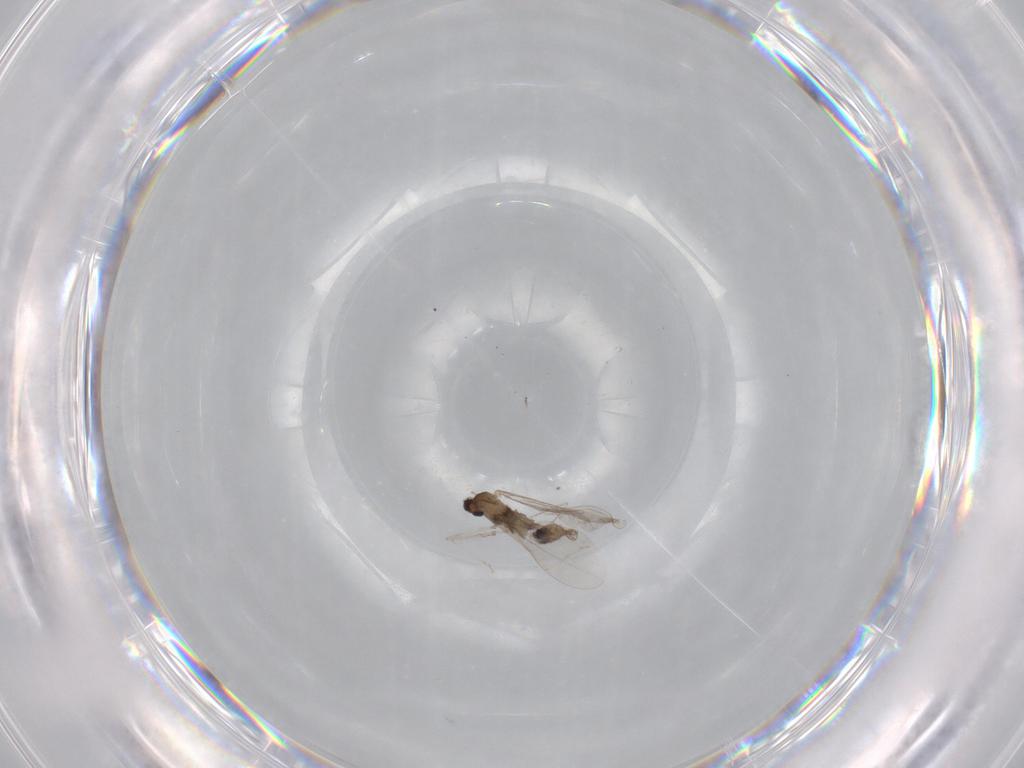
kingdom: Animalia
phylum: Arthropoda
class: Insecta
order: Diptera
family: Cecidomyiidae
